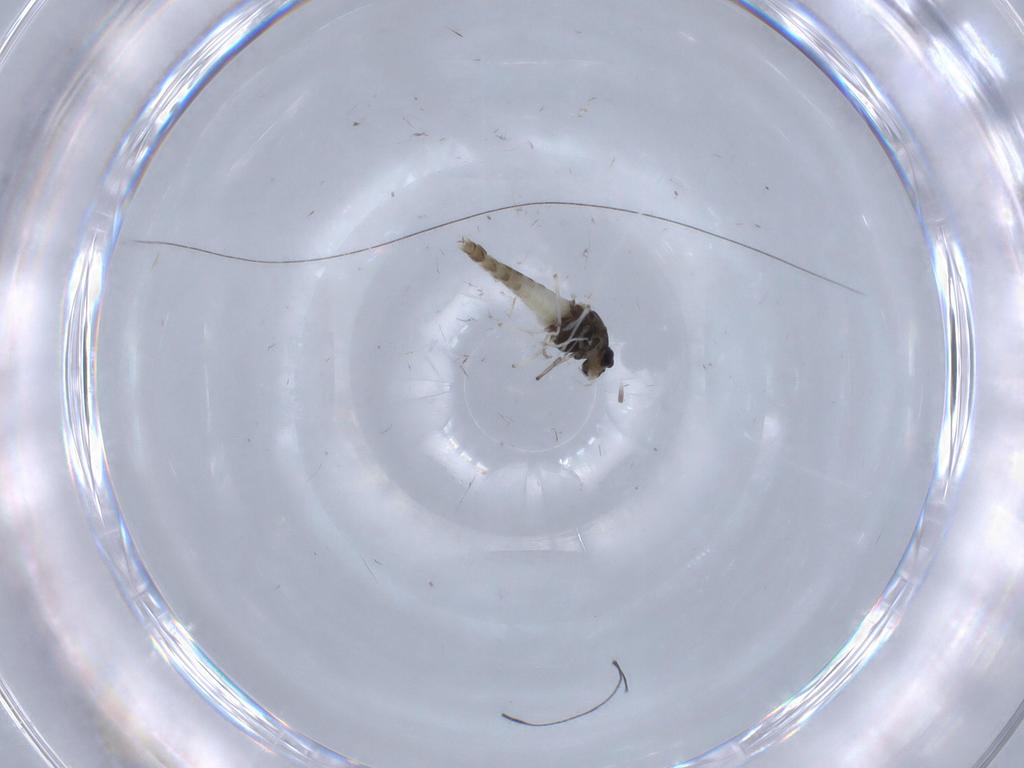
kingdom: Animalia
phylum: Arthropoda
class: Insecta
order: Diptera
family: Chironomidae
